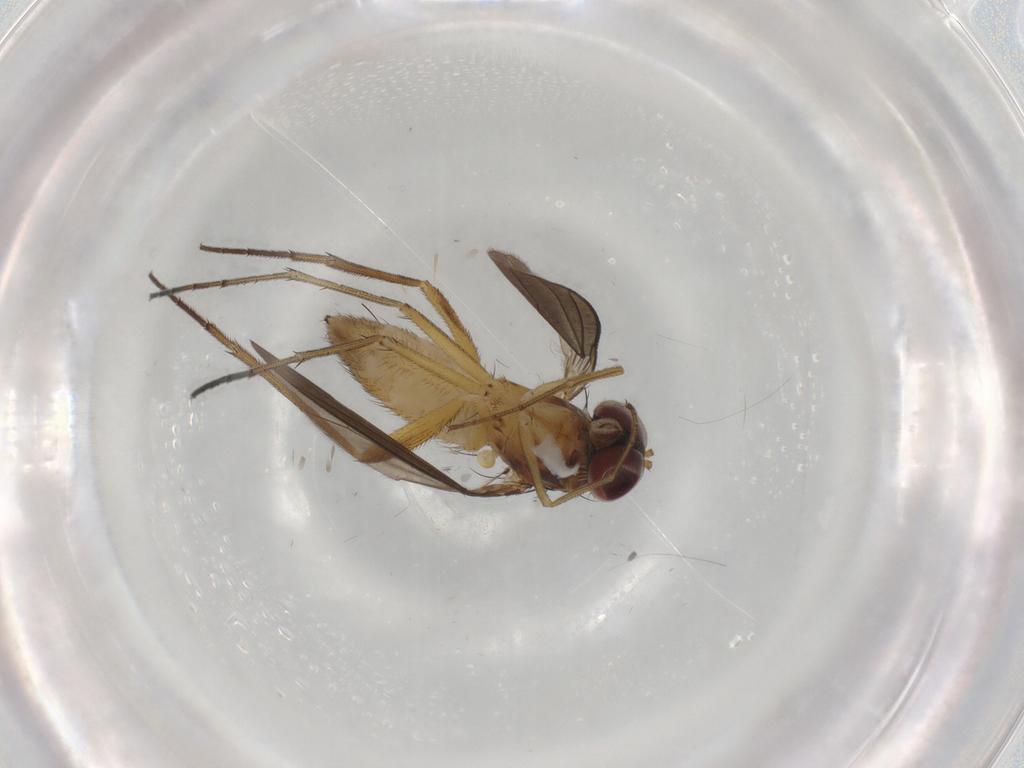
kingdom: Animalia
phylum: Arthropoda
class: Insecta
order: Diptera
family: Dolichopodidae
